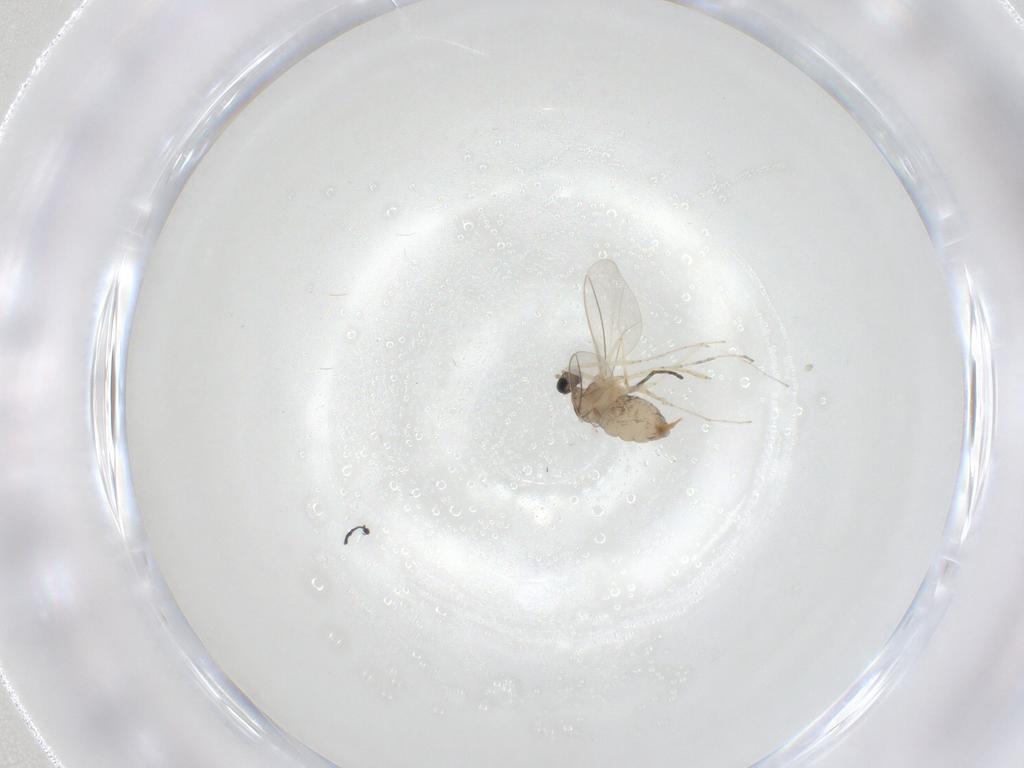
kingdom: Animalia
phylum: Arthropoda
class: Insecta
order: Diptera
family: Cecidomyiidae
